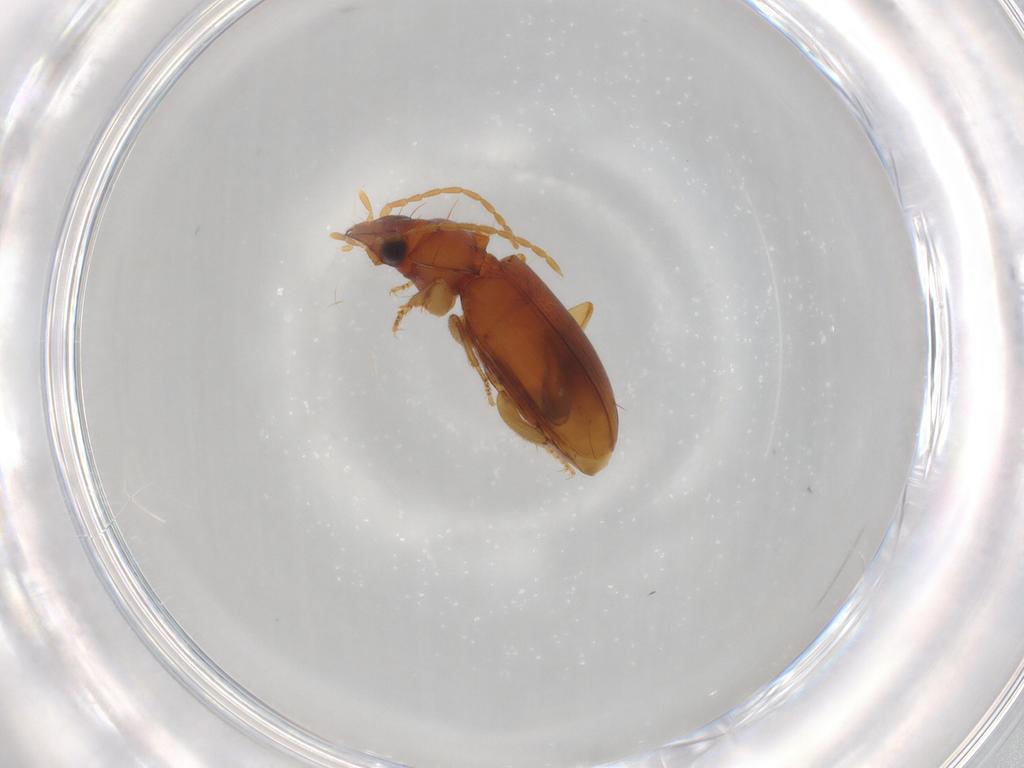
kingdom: Animalia
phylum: Arthropoda
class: Insecta
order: Coleoptera
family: Carabidae
